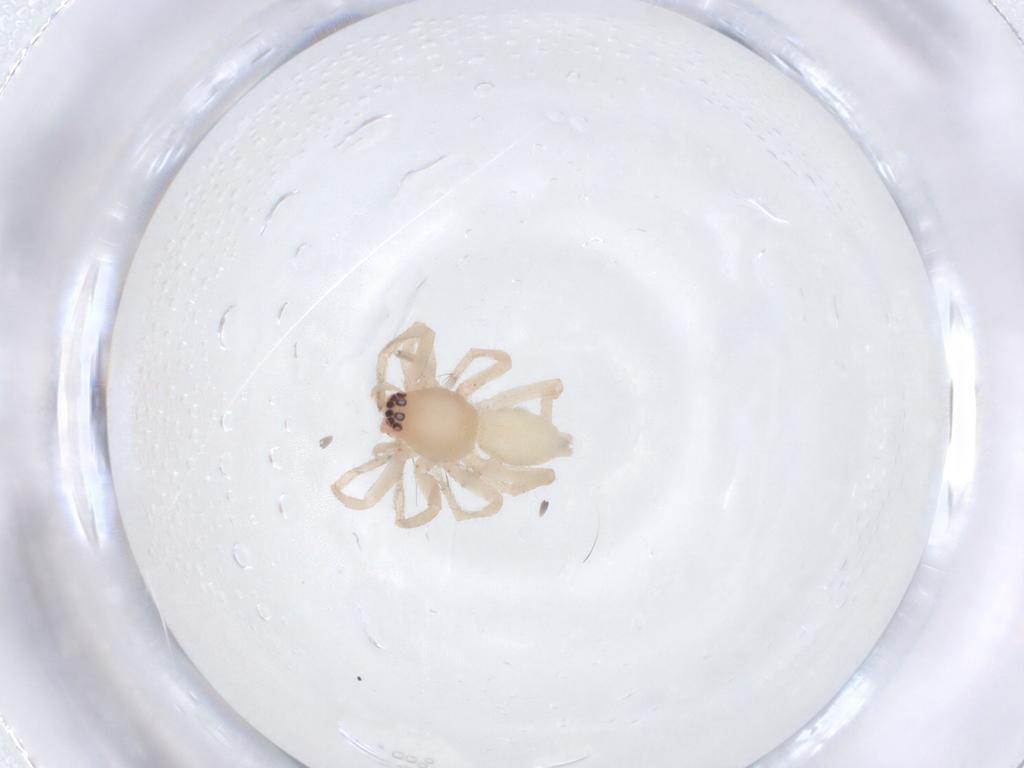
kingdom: Animalia
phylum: Arthropoda
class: Arachnida
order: Araneae
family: Clubionidae
